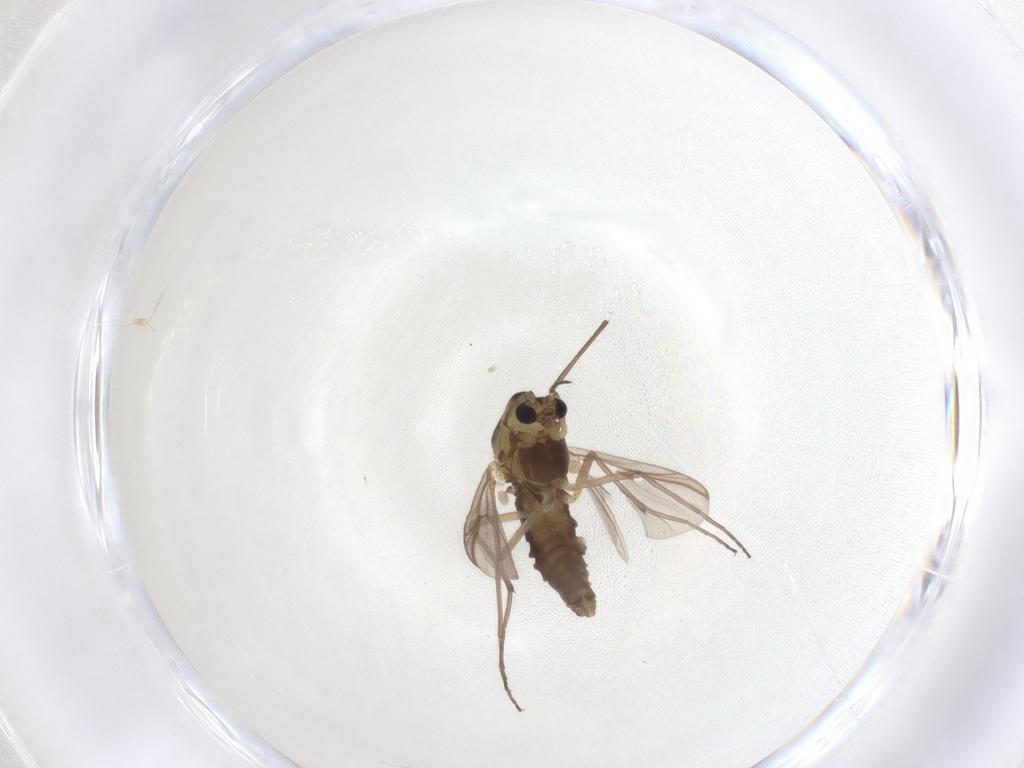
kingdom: Animalia
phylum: Arthropoda
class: Insecta
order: Diptera
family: Chironomidae
